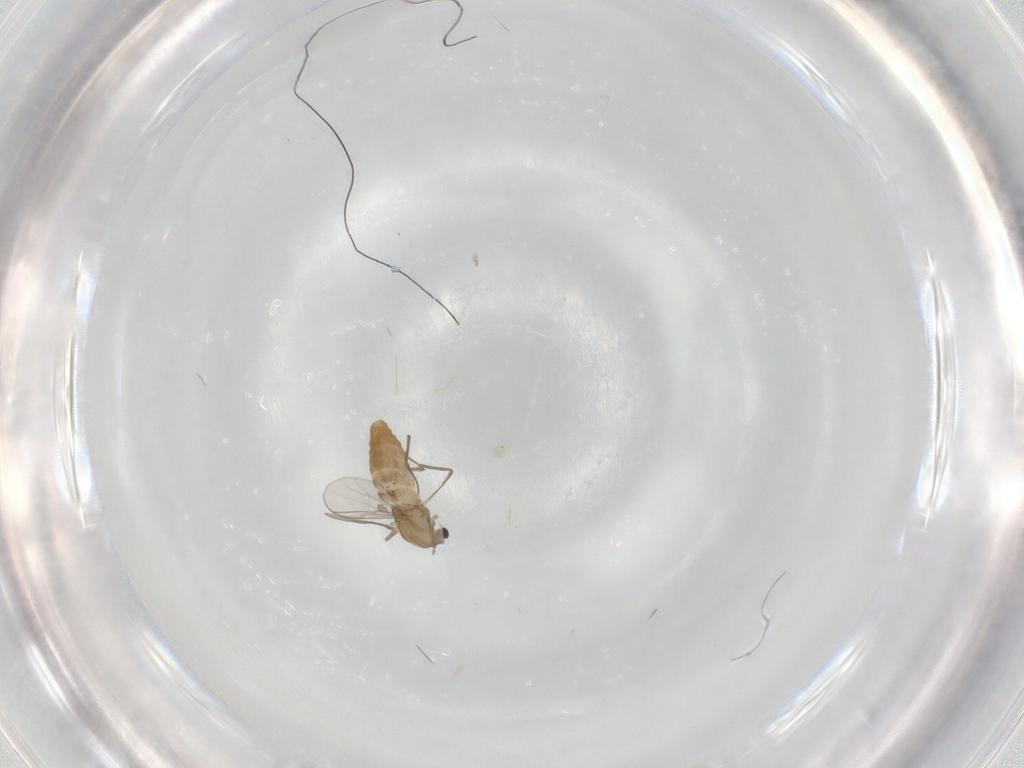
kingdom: Animalia
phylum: Arthropoda
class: Insecta
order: Diptera
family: Chironomidae
